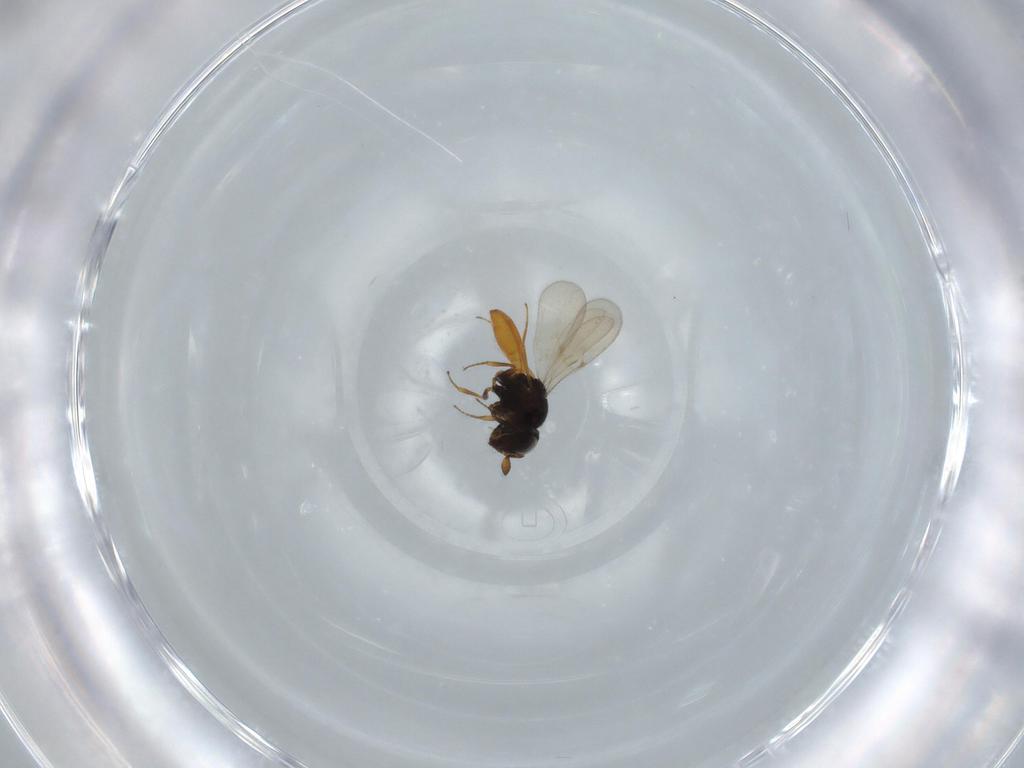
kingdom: Animalia
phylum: Arthropoda
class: Insecta
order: Hymenoptera
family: Scelionidae
